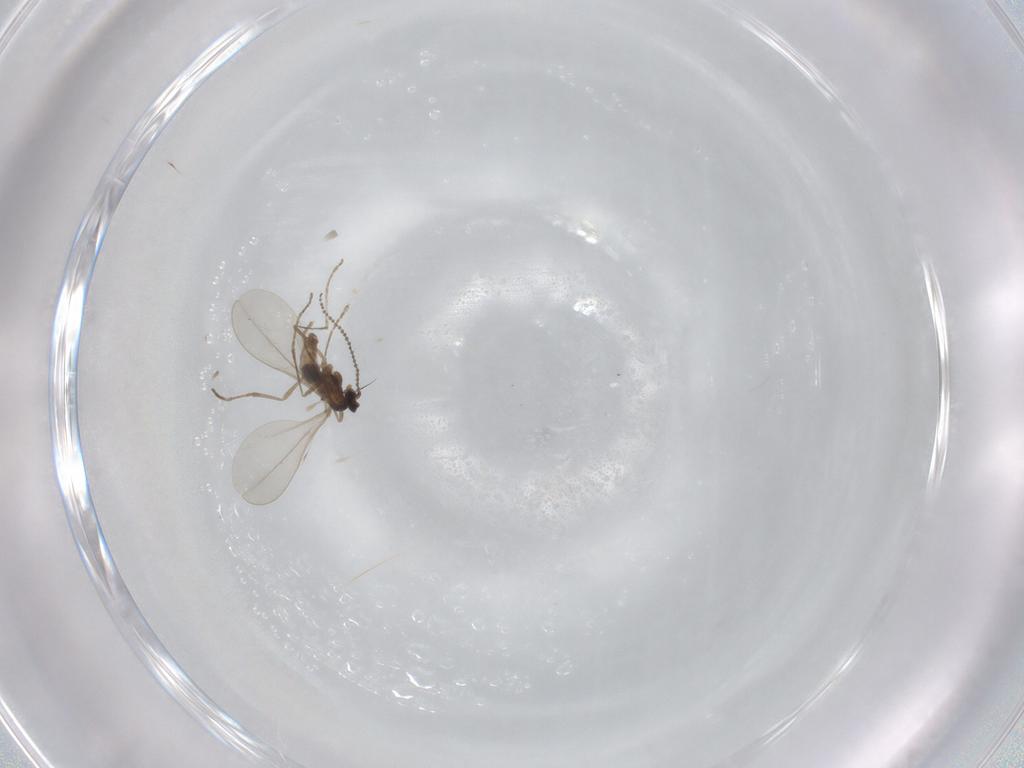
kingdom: Animalia
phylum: Arthropoda
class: Insecta
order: Diptera
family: Cecidomyiidae
